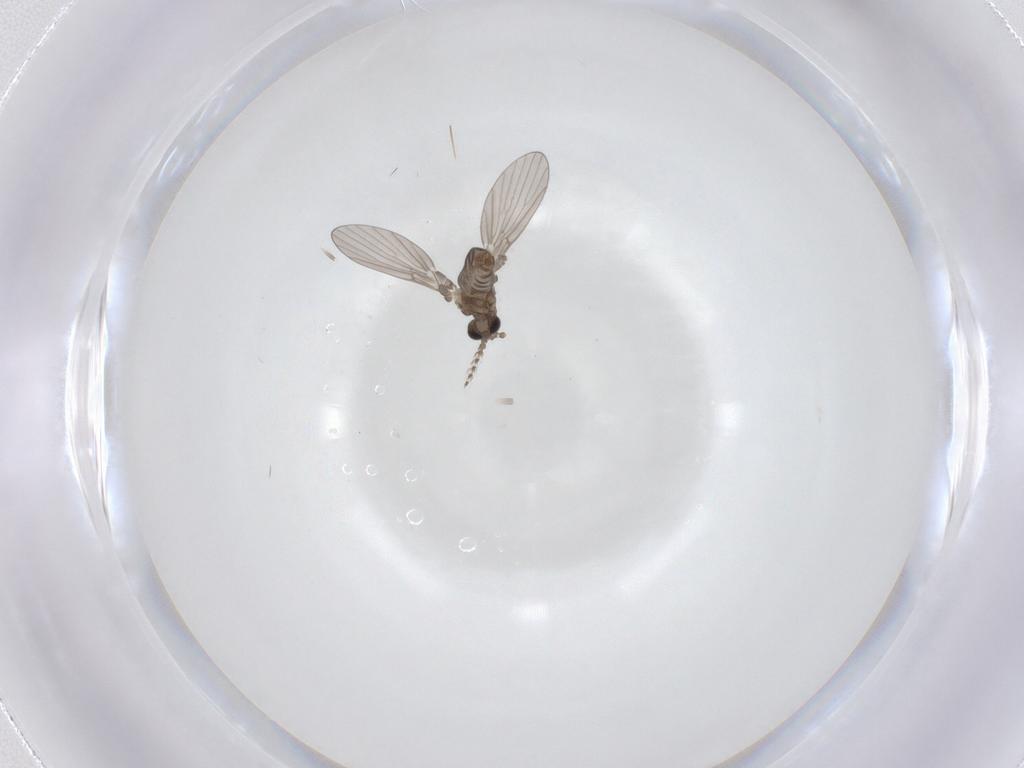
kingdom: Animalia
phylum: Arthropoda
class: Insecta
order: Diptera
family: Psychodidae
